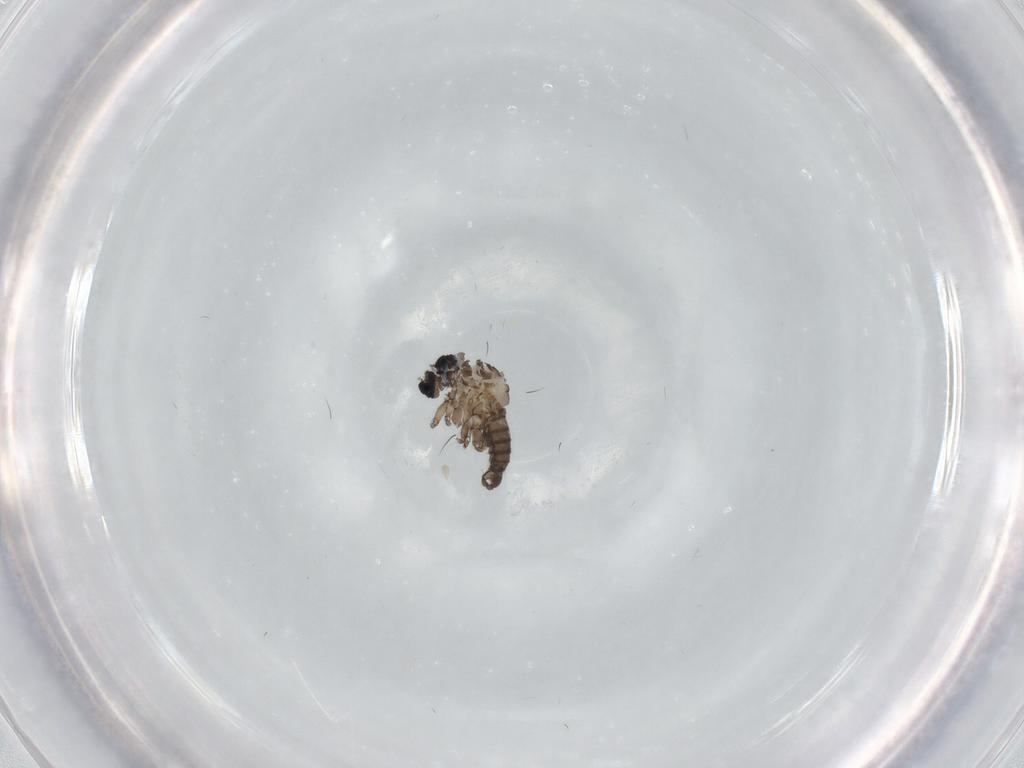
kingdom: Animalia
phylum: Arthropoda
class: Insecta
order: Diptera
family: Sciaridae
